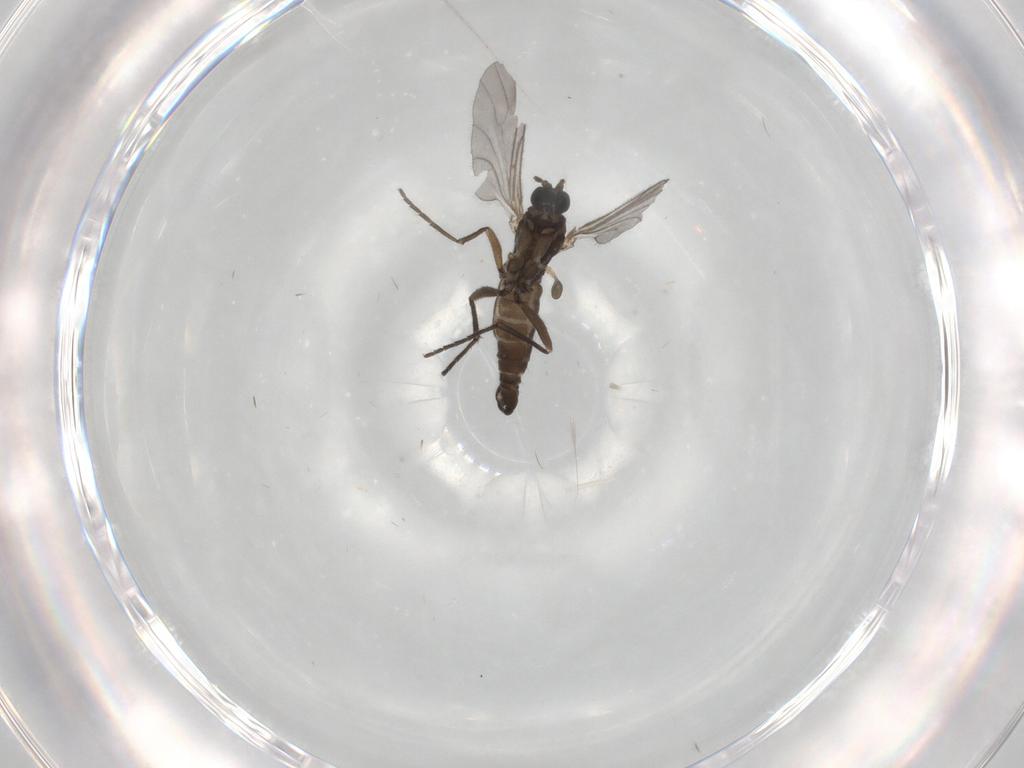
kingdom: Animalia
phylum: Arthropoda
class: Insecta
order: Diptera
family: Sciaridae
